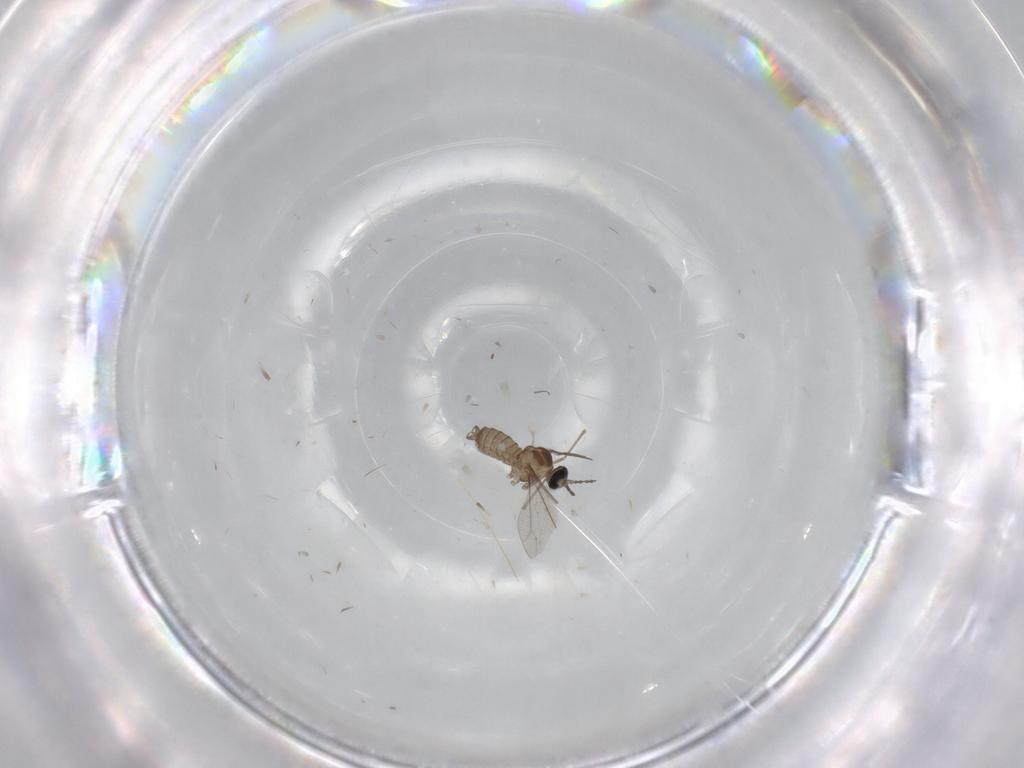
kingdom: Animalia
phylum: Arthropoda
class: Insecta
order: Diptera
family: Cecidomyiidae
